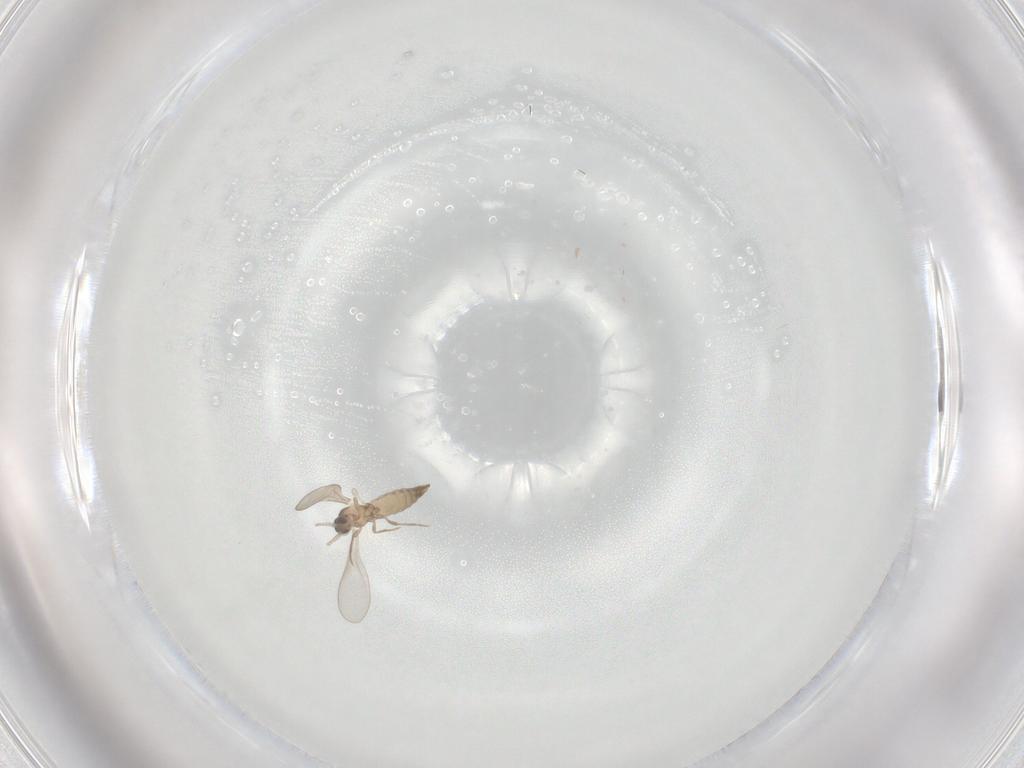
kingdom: Animalia
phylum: Arthropoda
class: Insecta
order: Diptera
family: Cecidomyiidae
